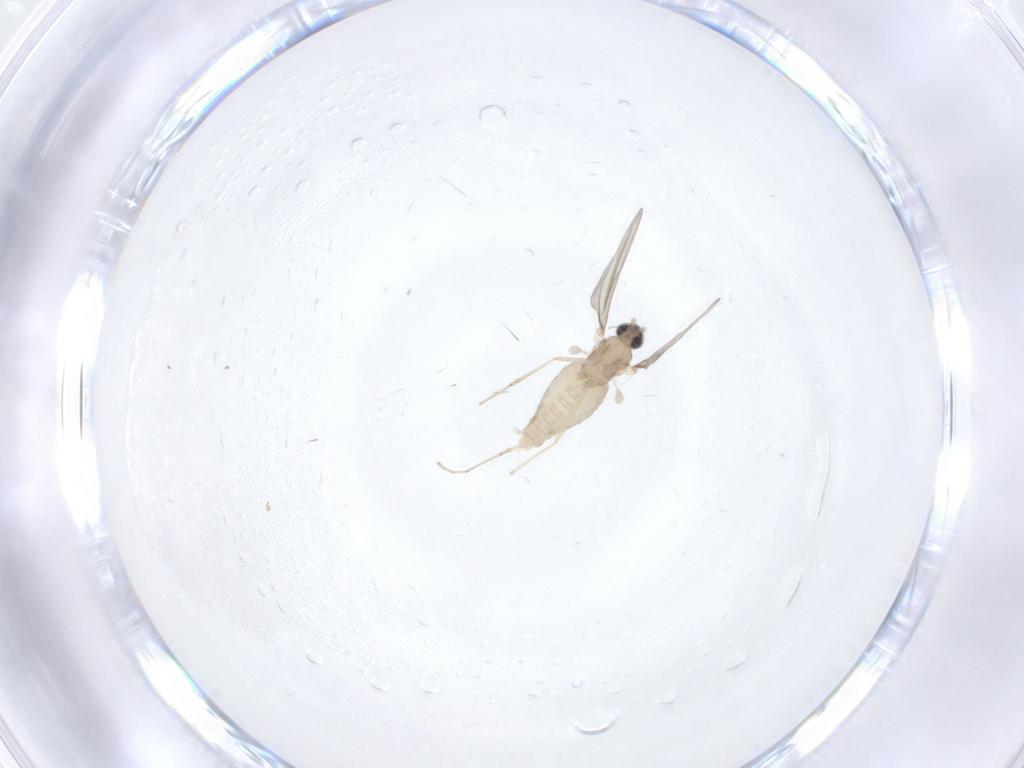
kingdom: Animalia
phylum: Arthropoda
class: Insecta
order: Diptera
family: Cecidomyiidae
